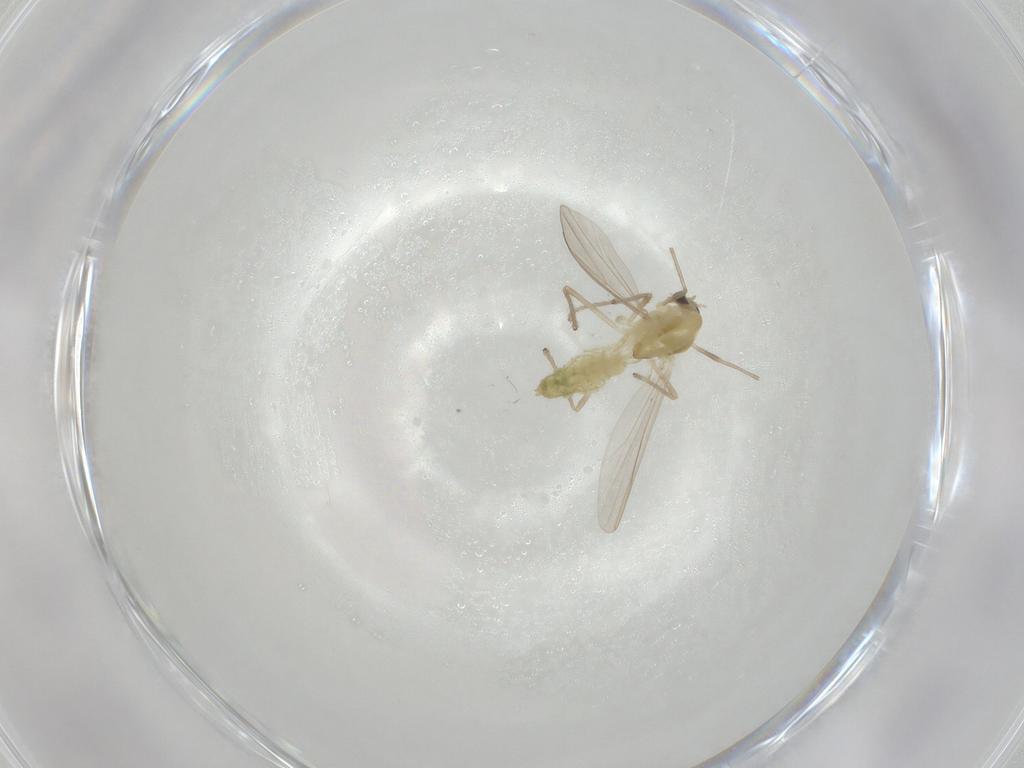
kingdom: Animalia
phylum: Arthropoda
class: Insecta
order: Diptera
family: Chironomidae
